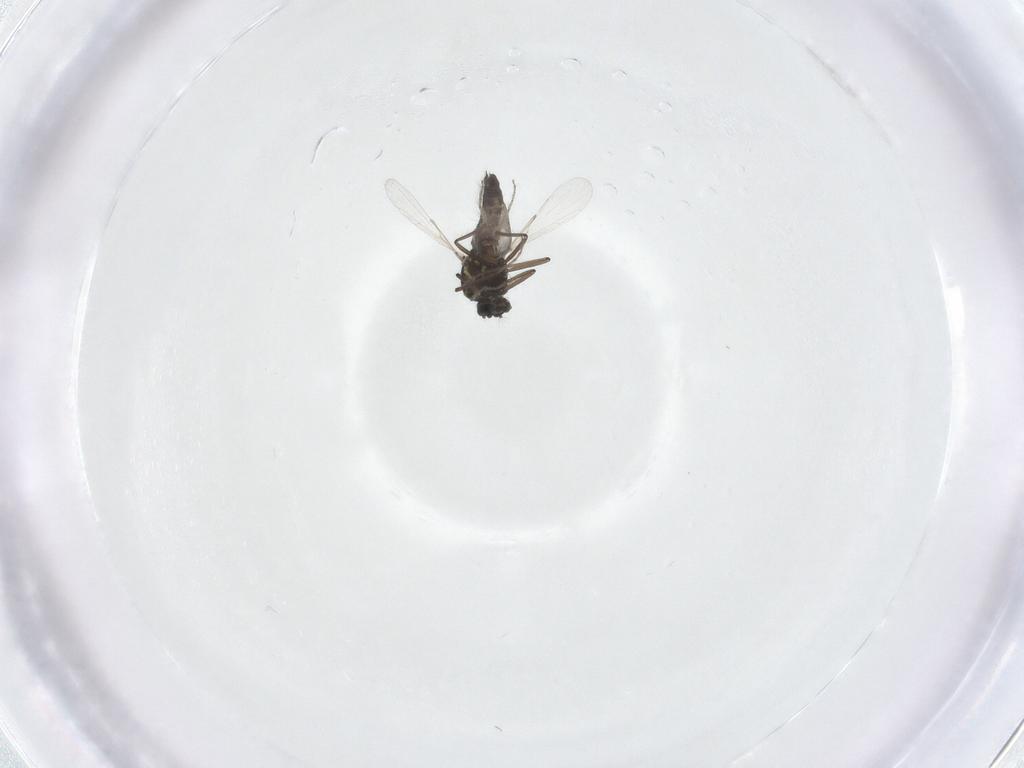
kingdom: Animalia
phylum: Arthropoda
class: Insecta
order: Diptera
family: Ceratopogonidae
